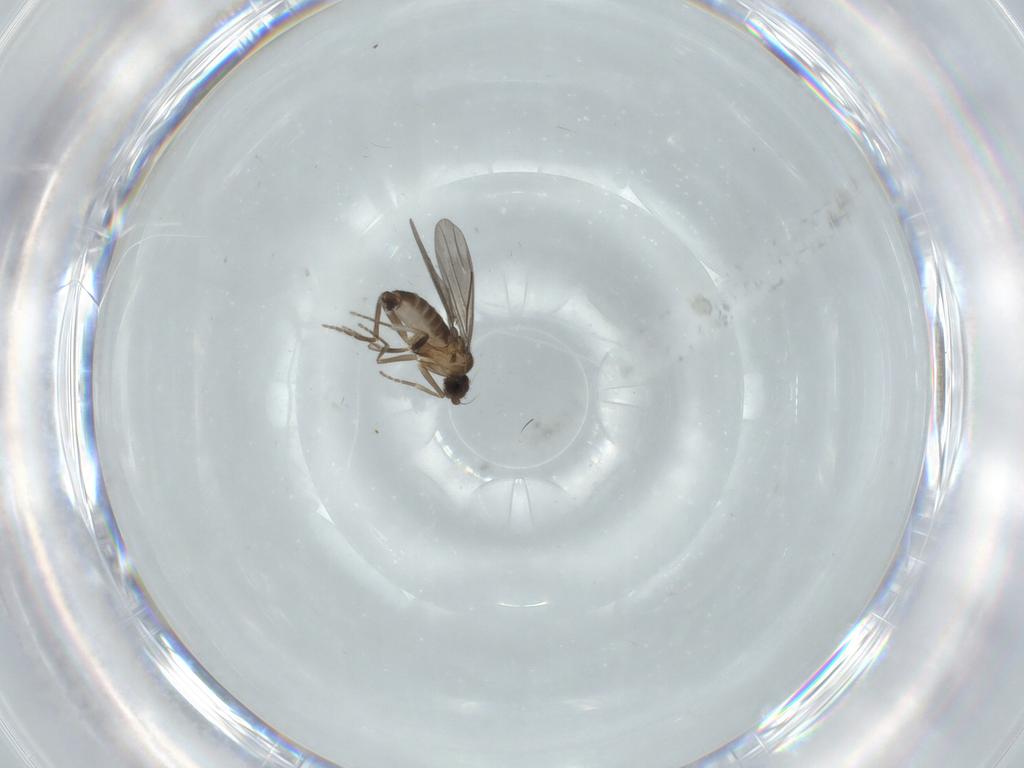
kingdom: Animalia
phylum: Arthropoda
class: Insecta
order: Diptera
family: Phoridae
